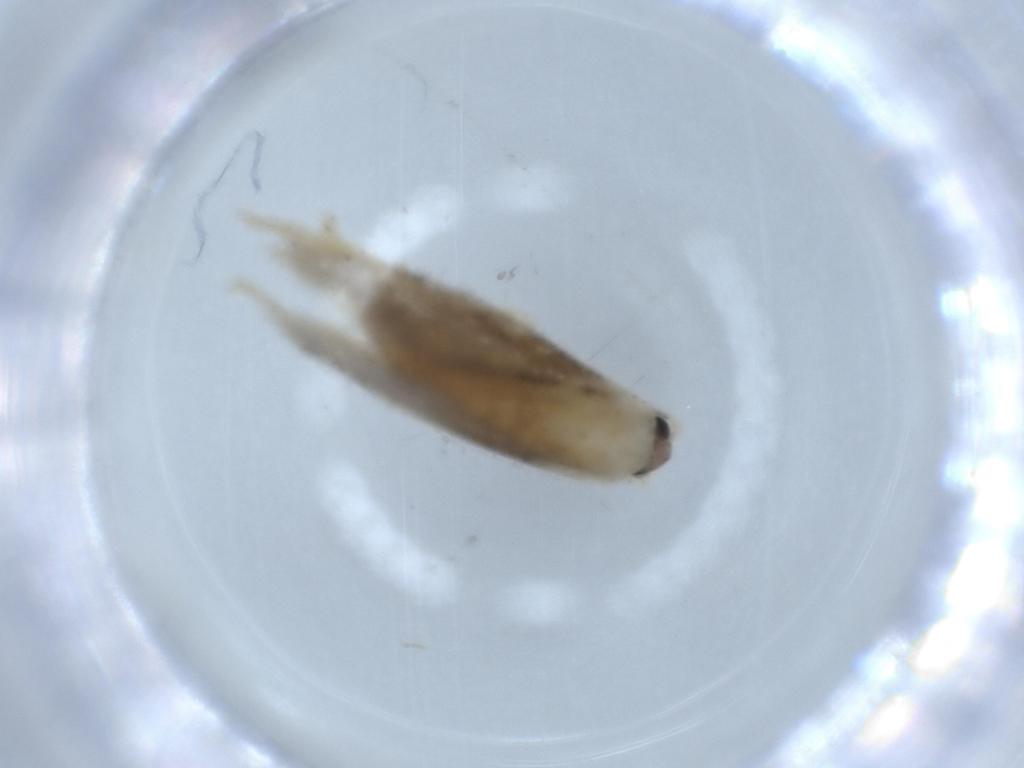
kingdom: Animalia
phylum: Arthropoda
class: Insecta
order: Lepidoptera
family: Tineidae
